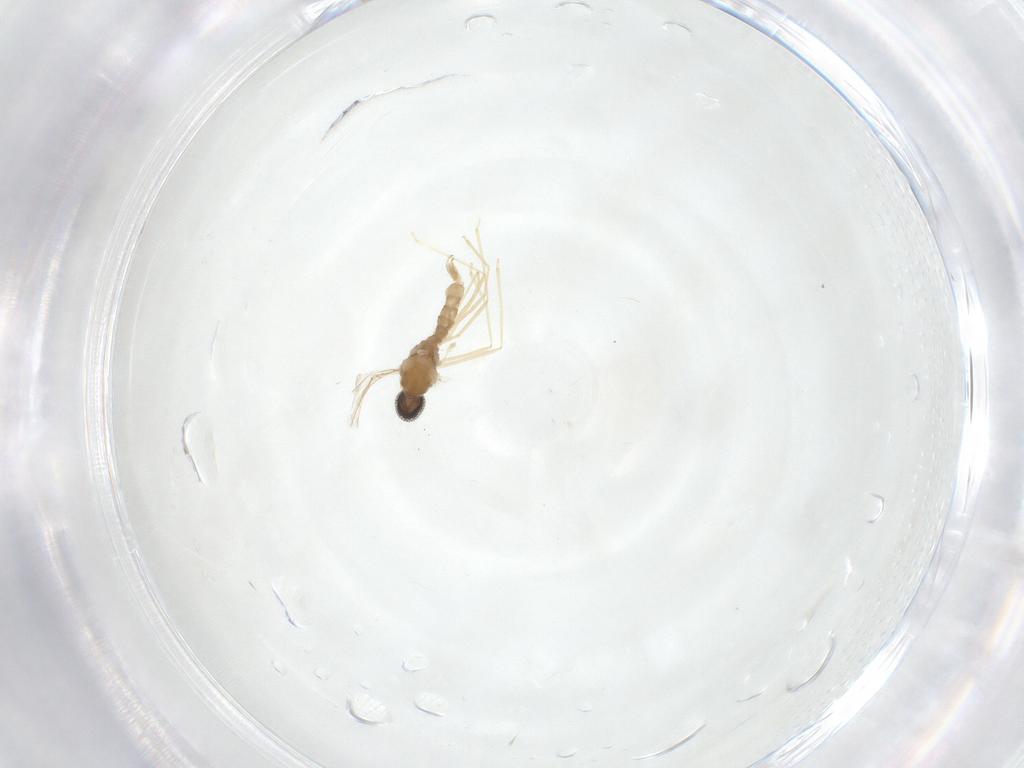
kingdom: Animalia
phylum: Arthropoda
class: Insecta
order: Diptera
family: Cecidomyiidae
